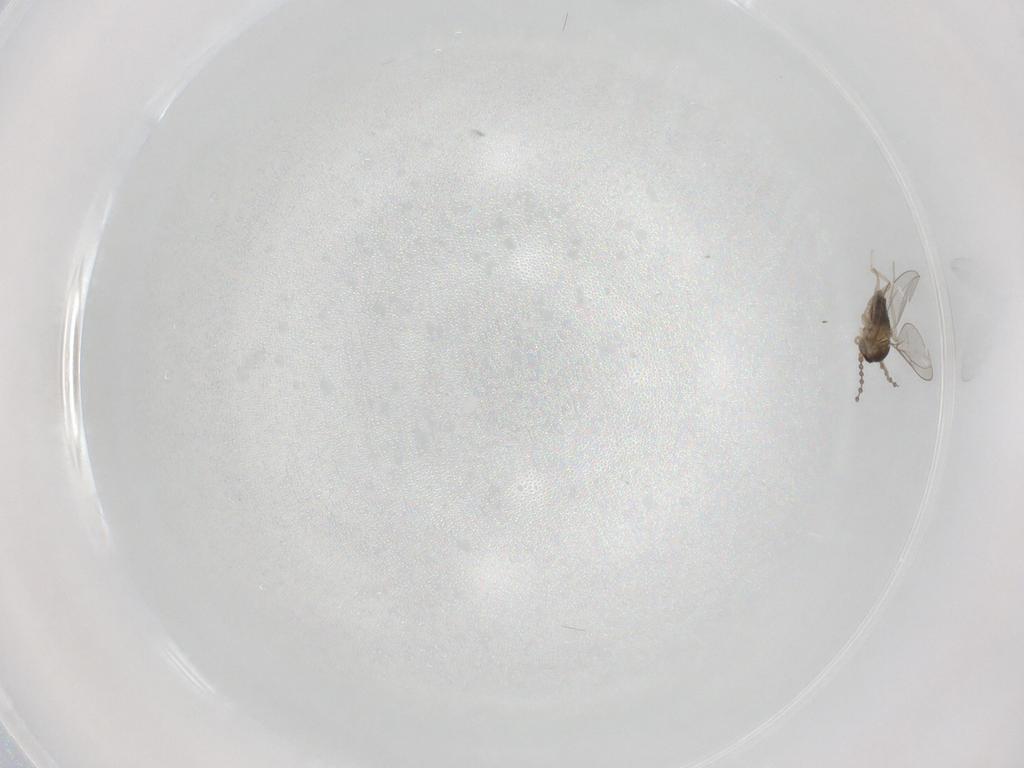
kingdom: Animalia
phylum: Arthropoda
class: Insecta
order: Diptera
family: Cecidomyiidae
